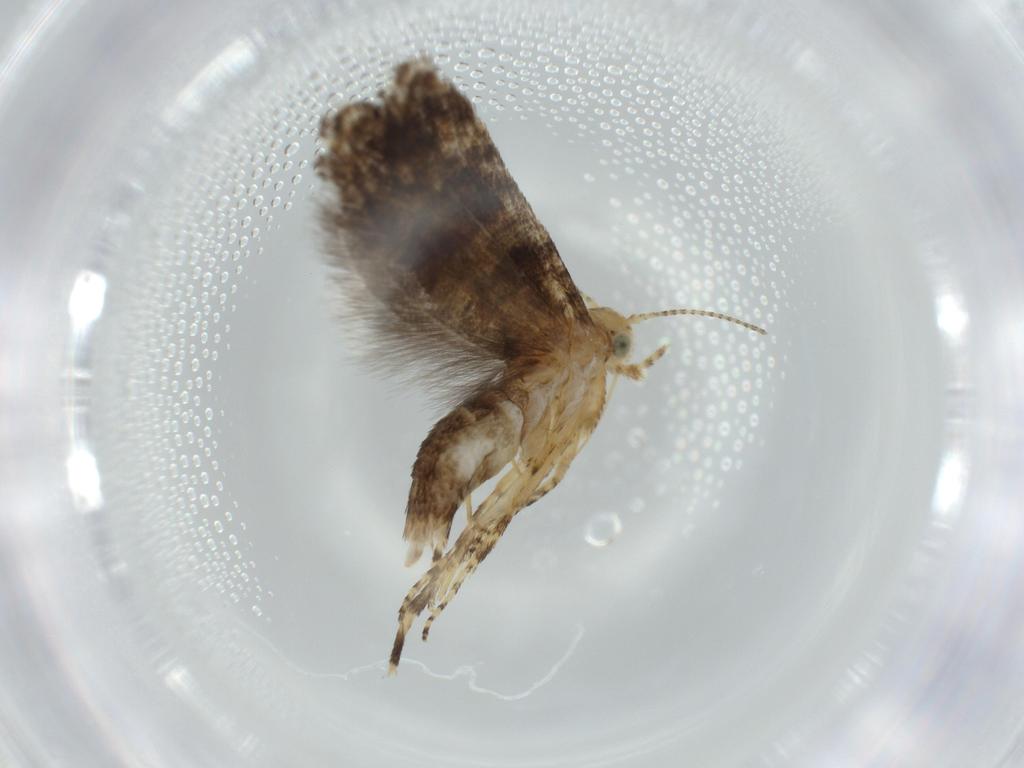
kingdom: Animalia
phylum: Arthropoda
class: Insecta
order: Lepidoptera
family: Glyphipterigidae
